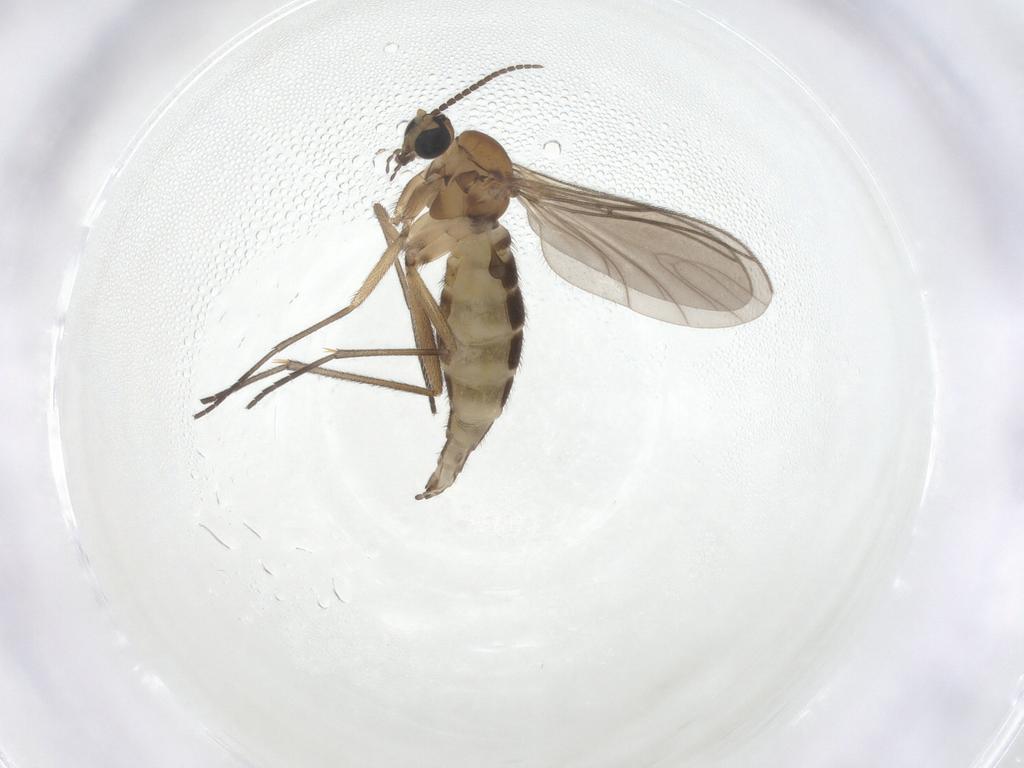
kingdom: Animalia
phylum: Arthropoda
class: Insecta
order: Diptera
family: Sciaridae
